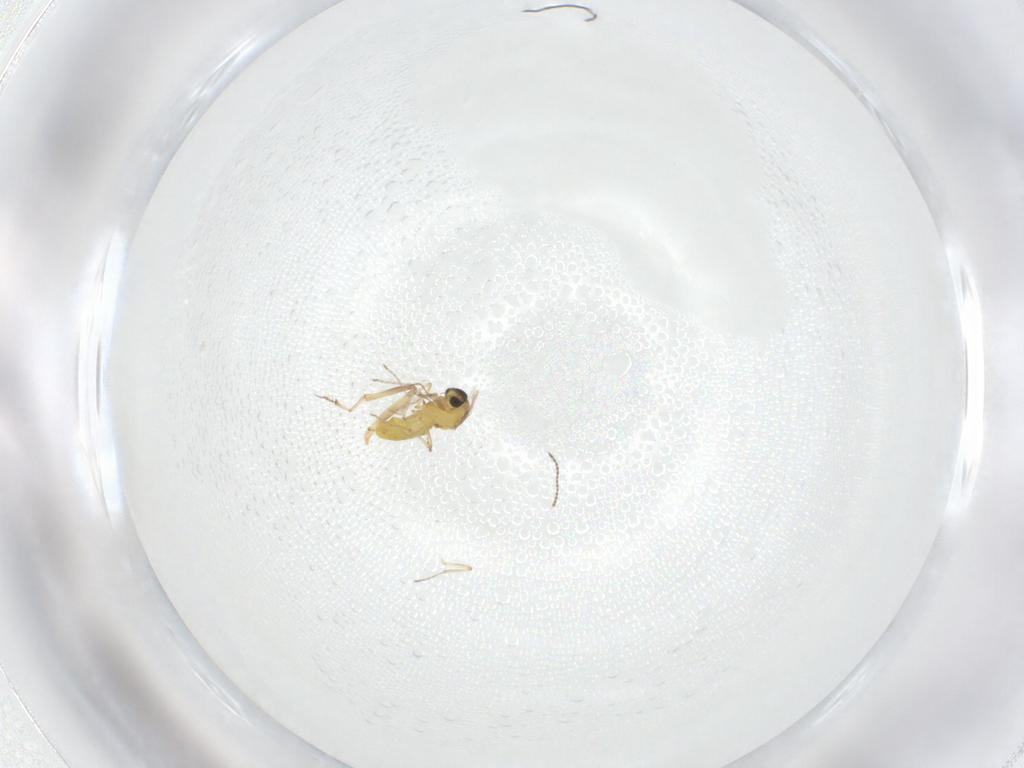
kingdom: Animalia
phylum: Arthropoda
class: Insecta
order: Diptera
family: Ceratopogonidae
